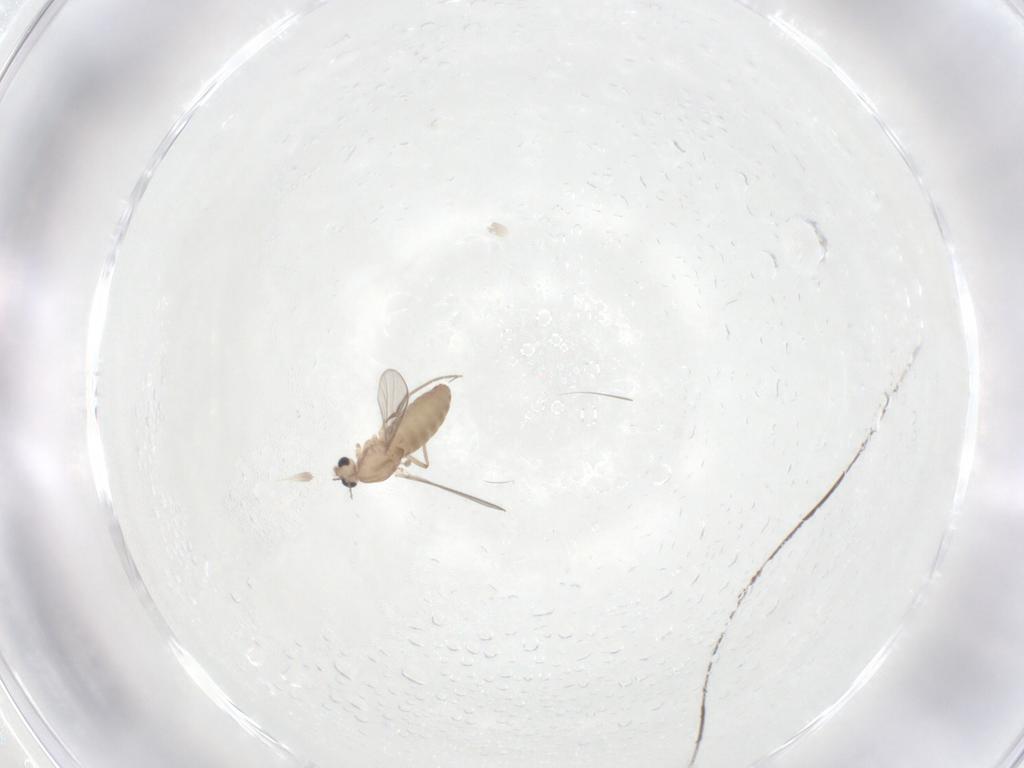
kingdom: Animalia
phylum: Arthropoda
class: Insecta
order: Diptera
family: Chironomidae
